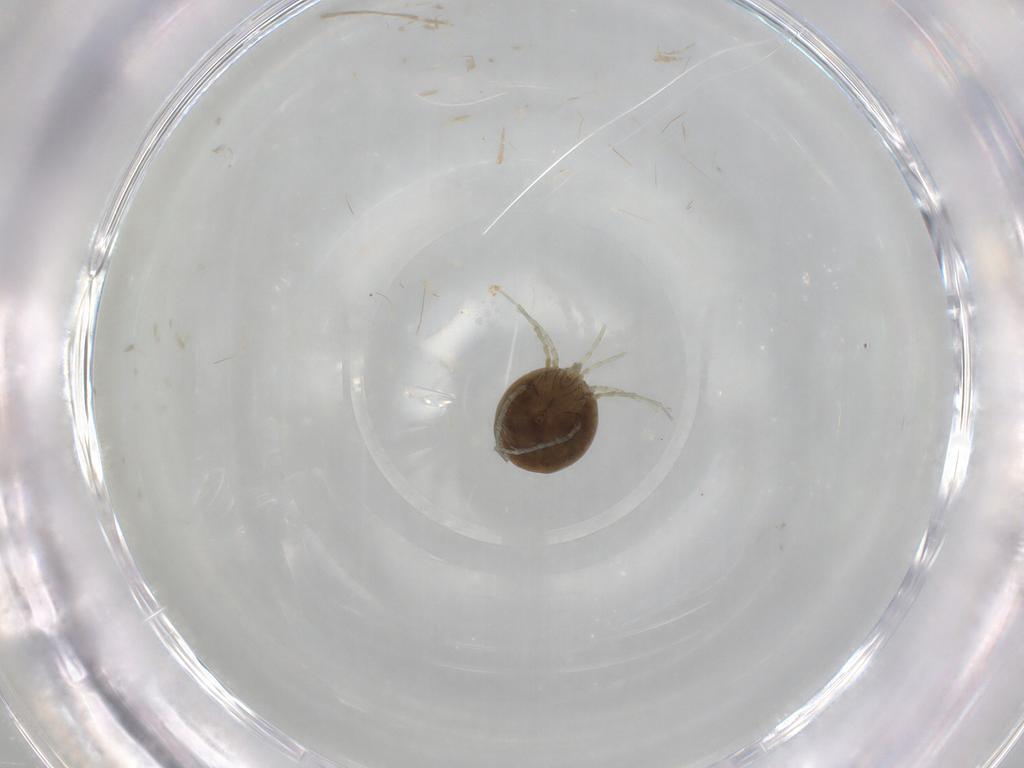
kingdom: Animalia
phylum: Arthropoda
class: Arachnida
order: Trombidiformes
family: Lebertiidae
